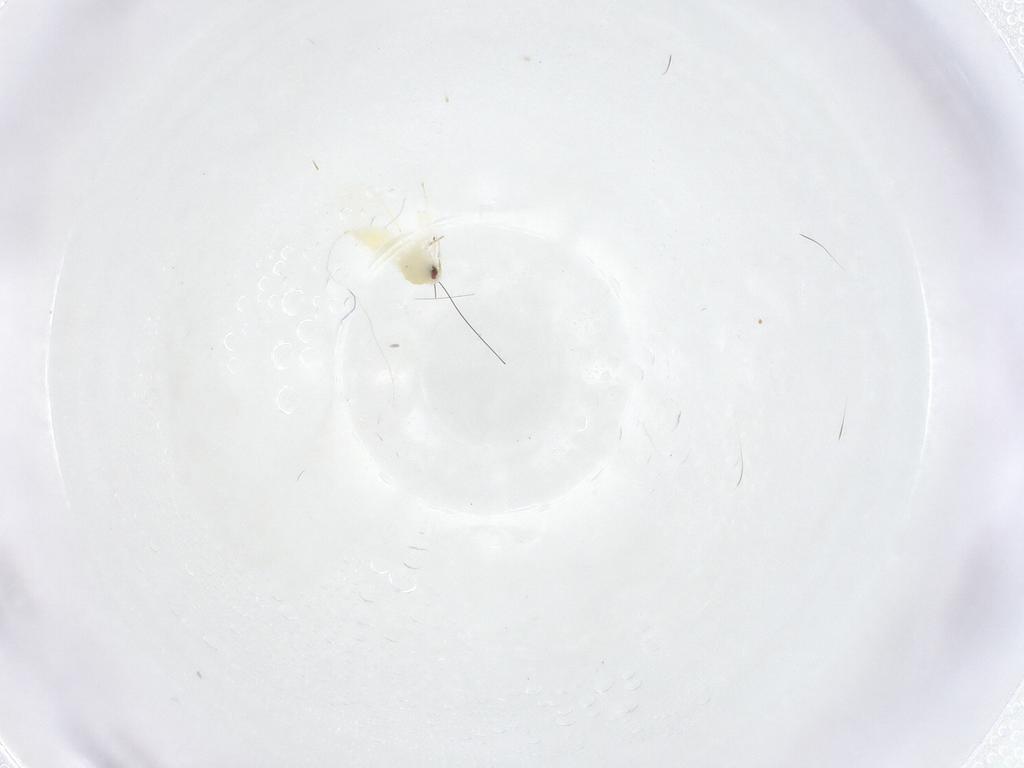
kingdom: Animalia
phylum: Arthropoda
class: Insecta
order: Hemiptera
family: Aleyrodidae
